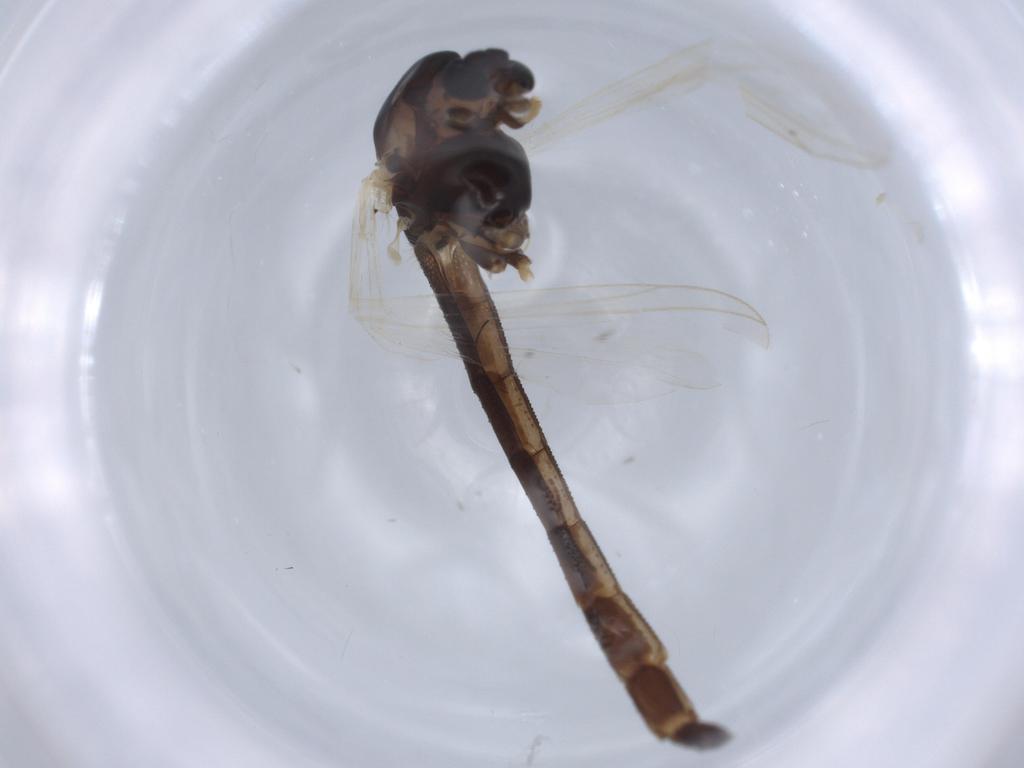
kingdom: Animalia
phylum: Arthropoda
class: Insecta
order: Diptera
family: Chironomidae
